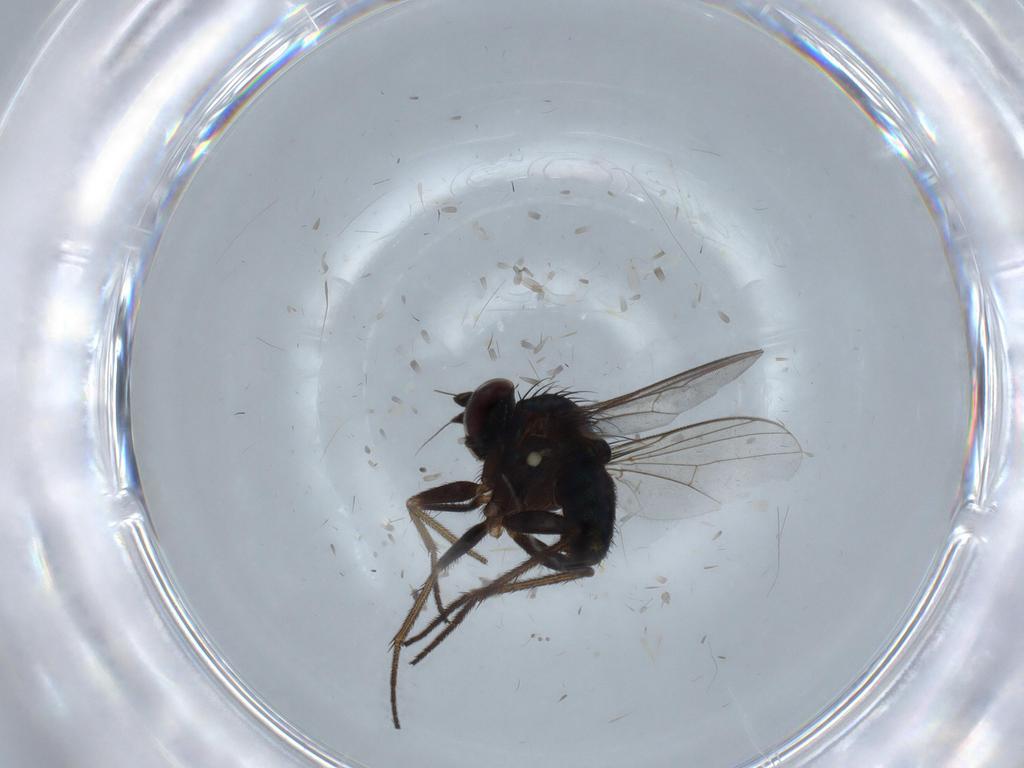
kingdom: Animalia
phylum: Arthropoda
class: Insecta
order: Diptera
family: Dolichopodidae
